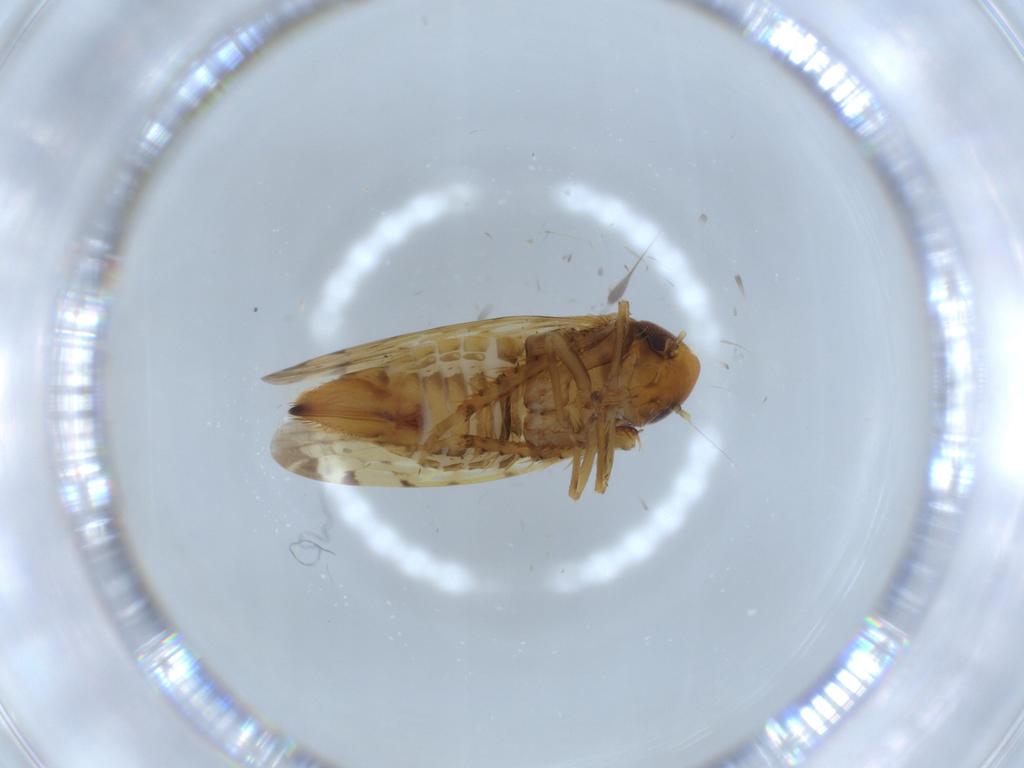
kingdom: Animalia
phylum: Arthropoda
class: Insecta
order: Hemiptera
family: Cicadellidae
